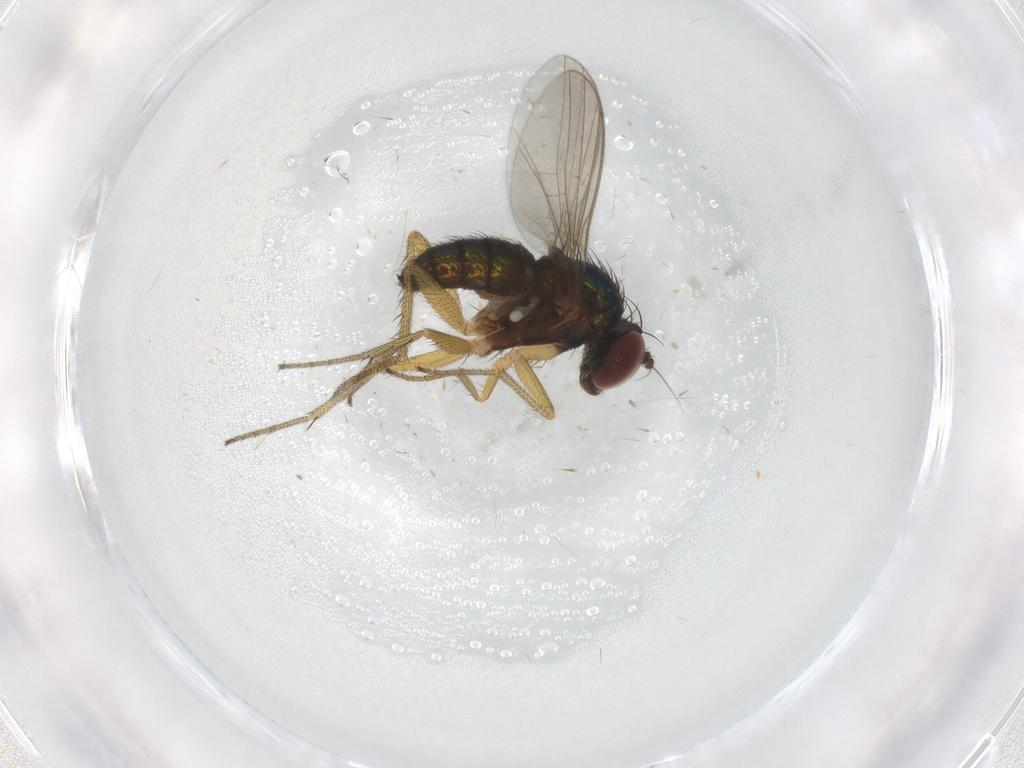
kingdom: Animalia
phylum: Arthropoda
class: Insecta
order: Diptera
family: Dolichopodidae
